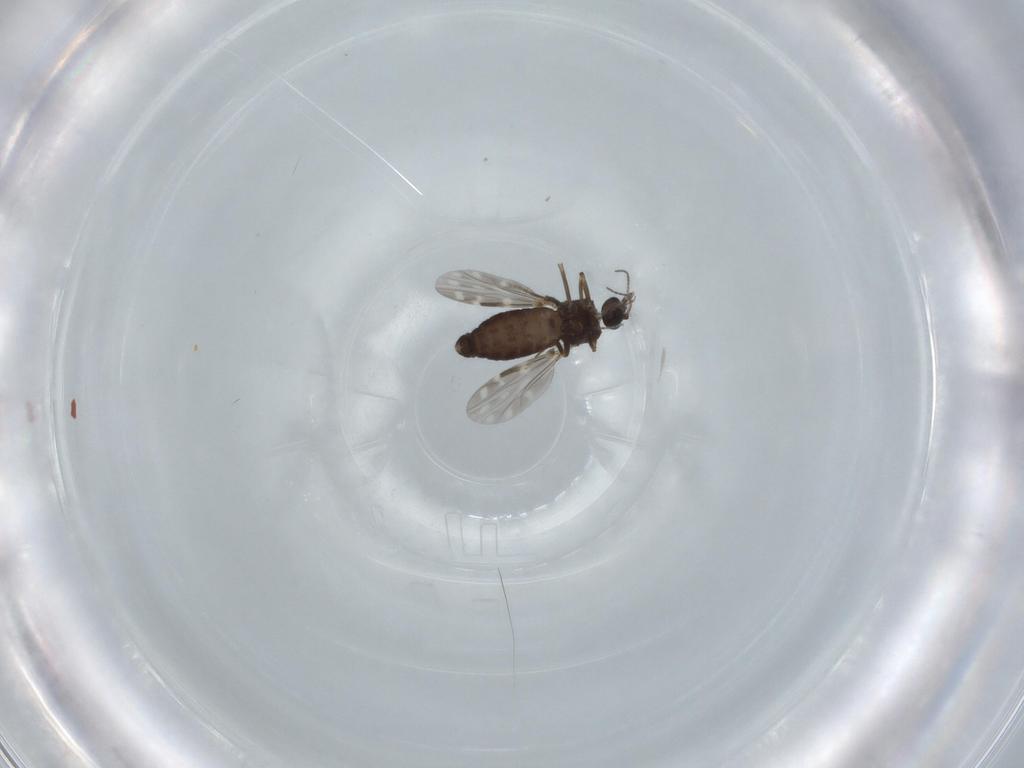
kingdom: Animalia
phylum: Arthropoda
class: Insecta
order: Diptera
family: Ceratopogonidae
